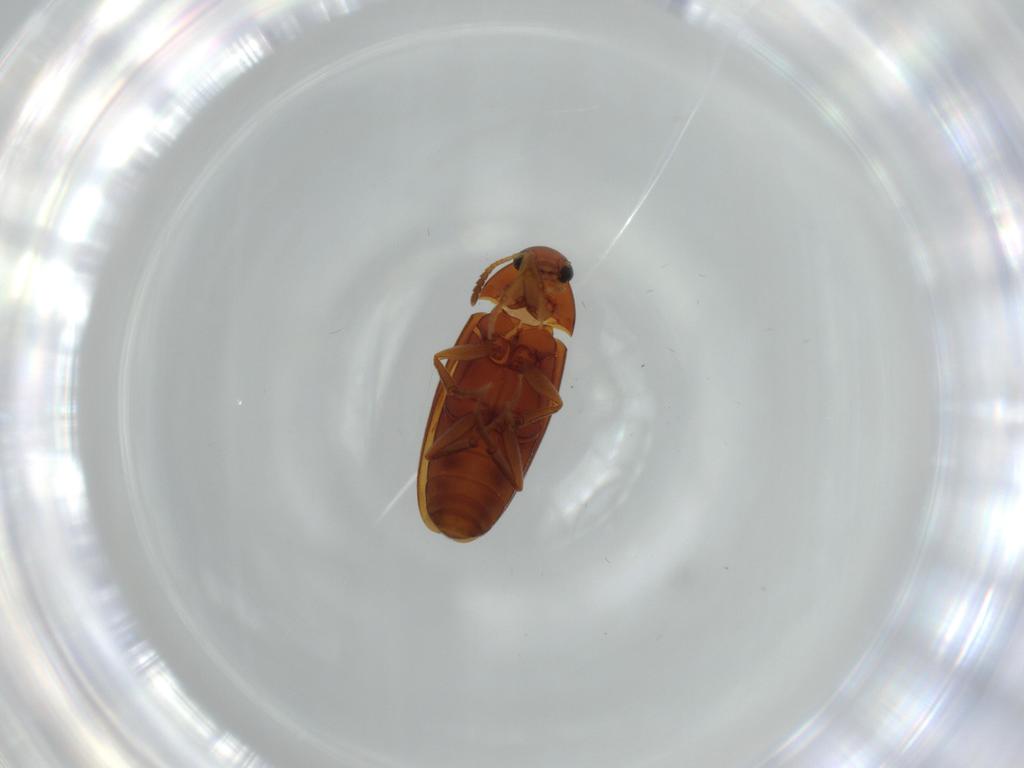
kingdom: Animalia
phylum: Arthropoda
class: Insecta
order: Coleoptera
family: Scraptiidae
